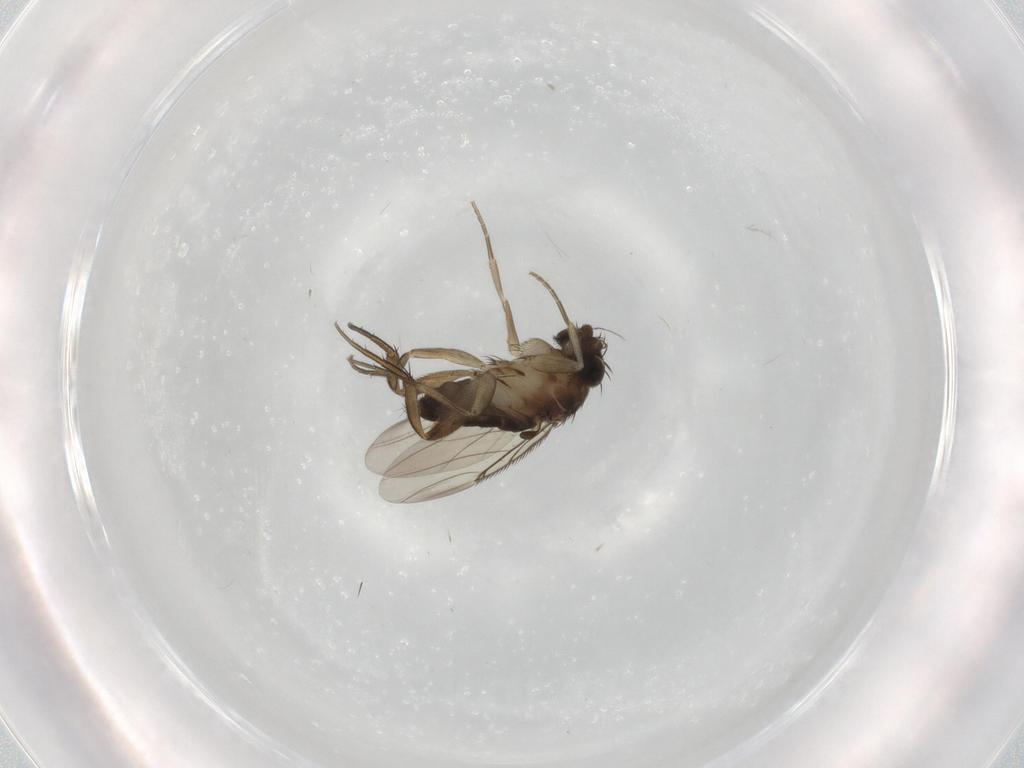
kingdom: Animalia
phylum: Arthropoda
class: Insecta
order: Diptera
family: Phoridae
